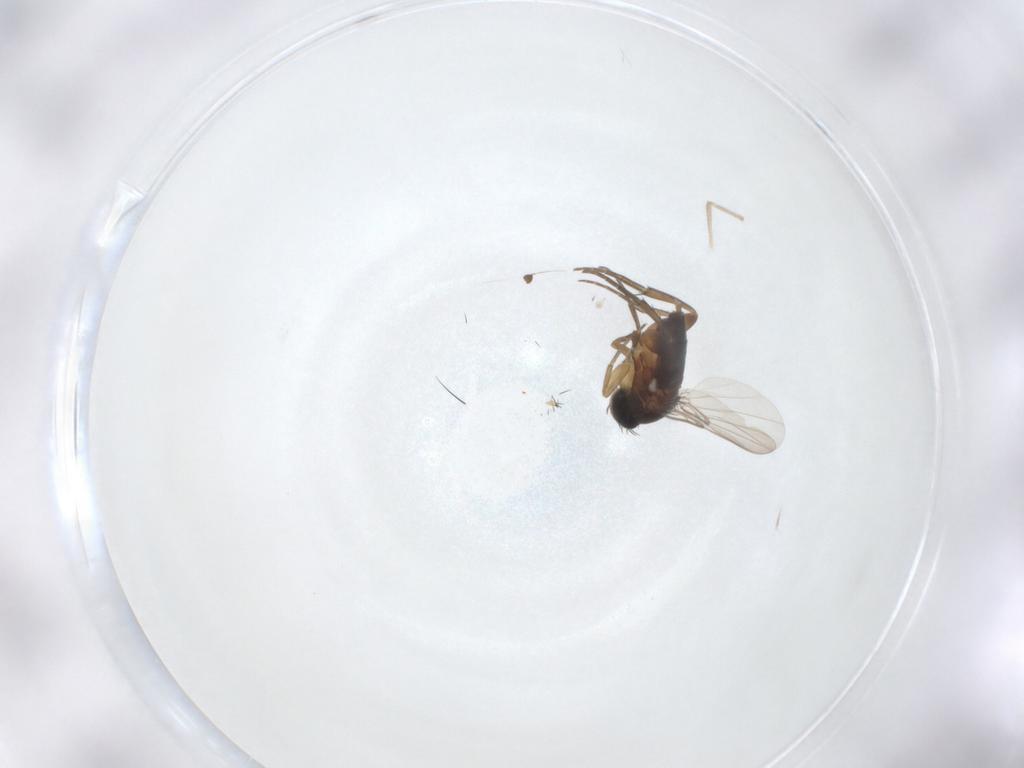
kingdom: Animalia
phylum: Arthropoda
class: Insecta
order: Diptera
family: Phoridae
